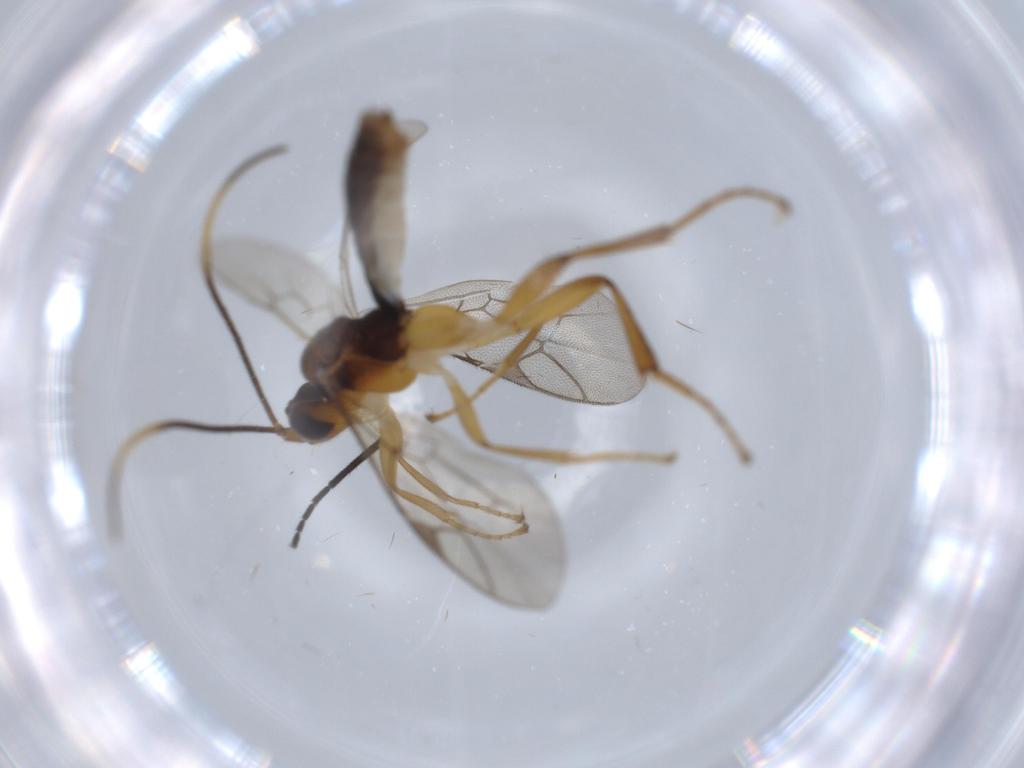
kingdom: Animalia
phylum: Arthropoda
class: Insecta
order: Hymenoptera
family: Figitidae
